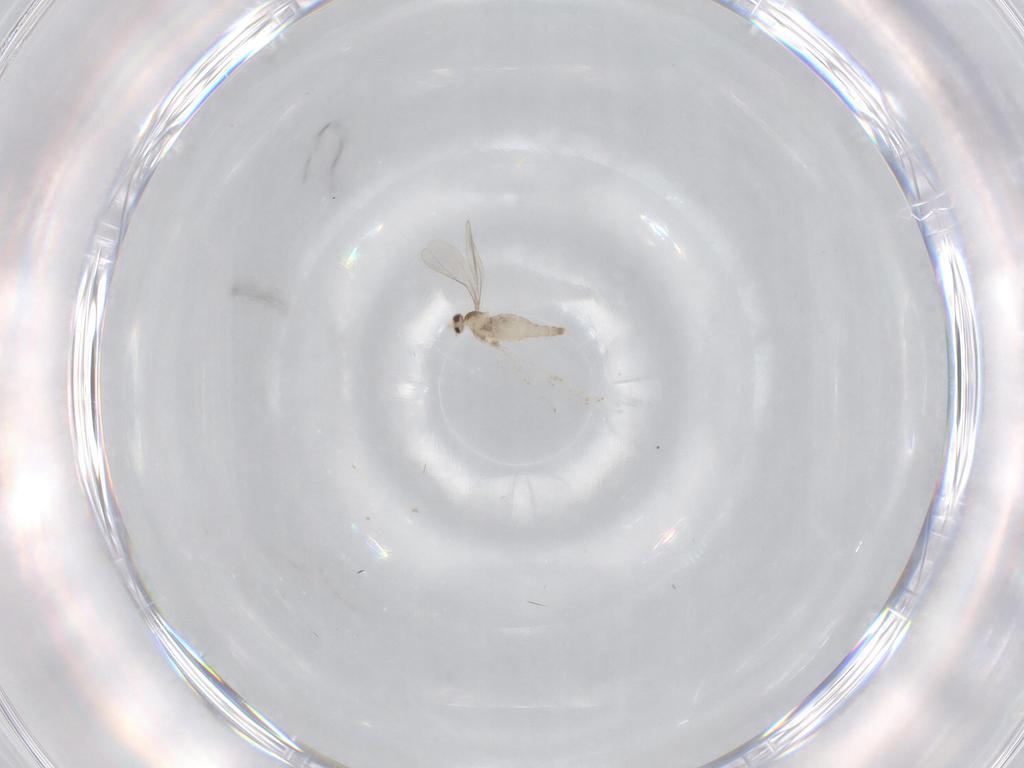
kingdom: Animalia
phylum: Arthropoda
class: Insecta
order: Diptera
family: Cecidomyiidae
